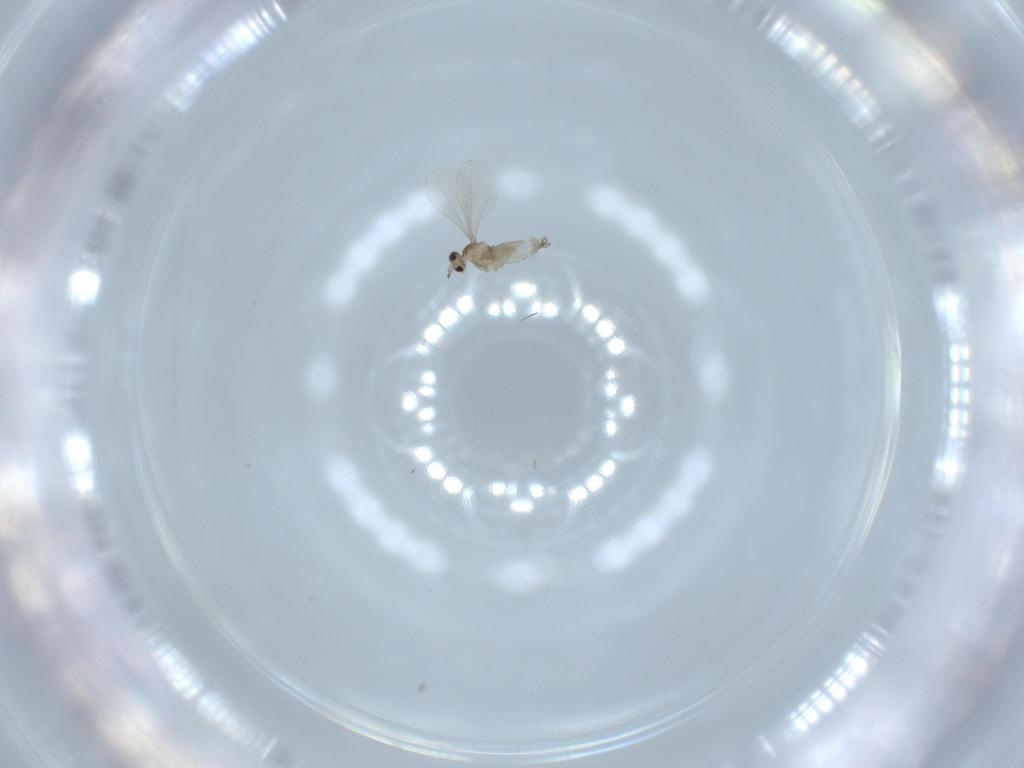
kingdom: Animalia
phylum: Arthropoda
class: Insecta
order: Diptera
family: Cecidomyiidae
